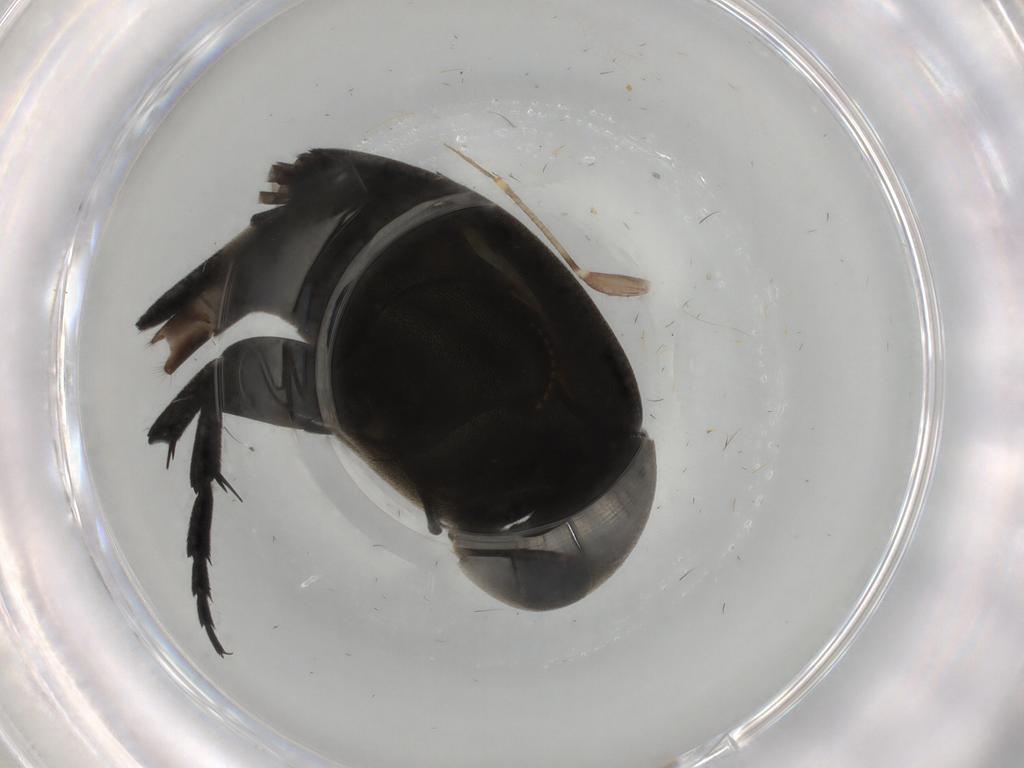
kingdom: Animalia
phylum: Arthropoda
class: Insecta
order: Coleoptera
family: Mordellidae
